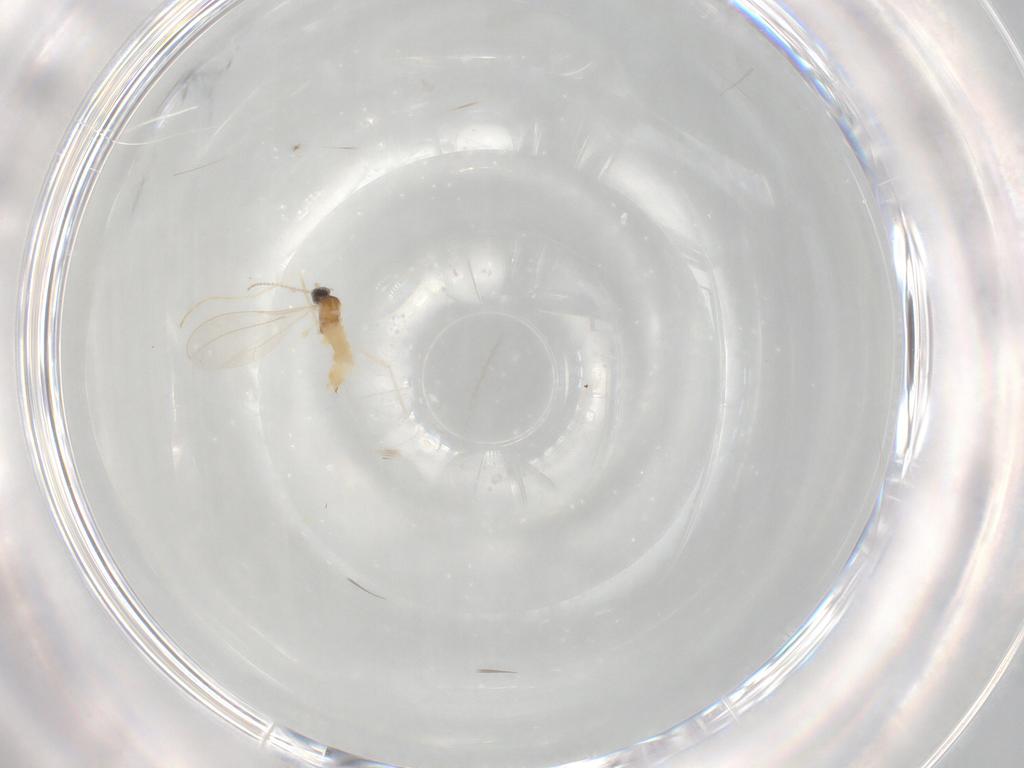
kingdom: Animalia
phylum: Arthropoda
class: Insecta
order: Diptera
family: Cecidomyiidae
